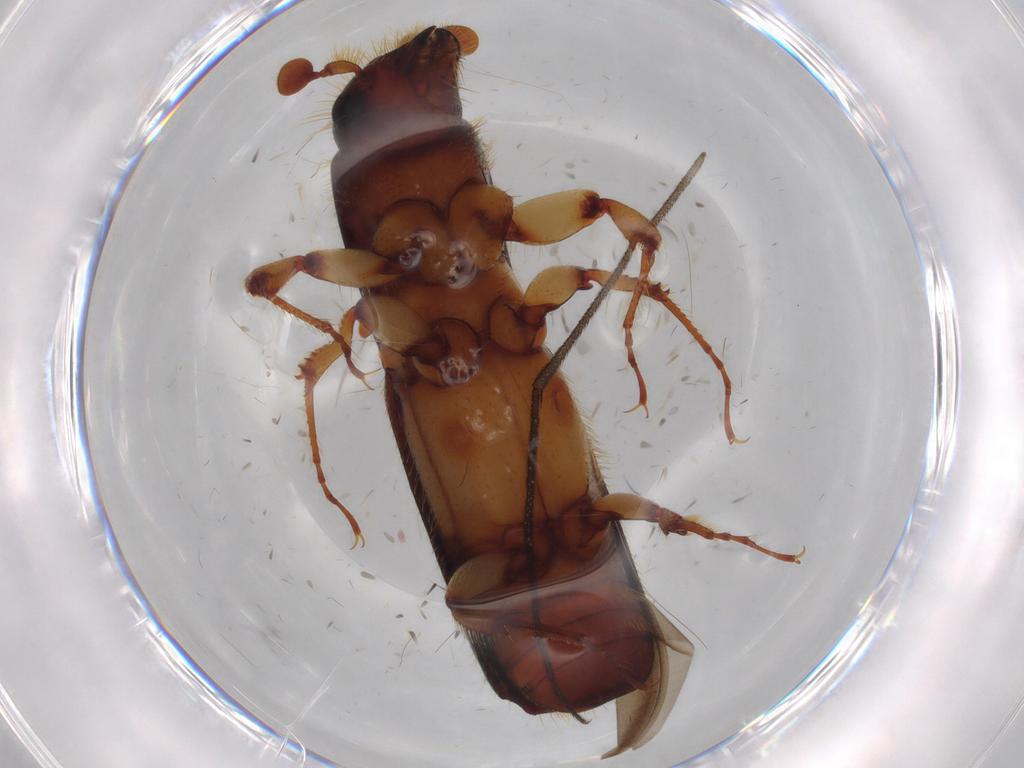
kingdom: Animalia
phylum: Arthropoda
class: Insecta
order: Coleoptera
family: Curculionidae
